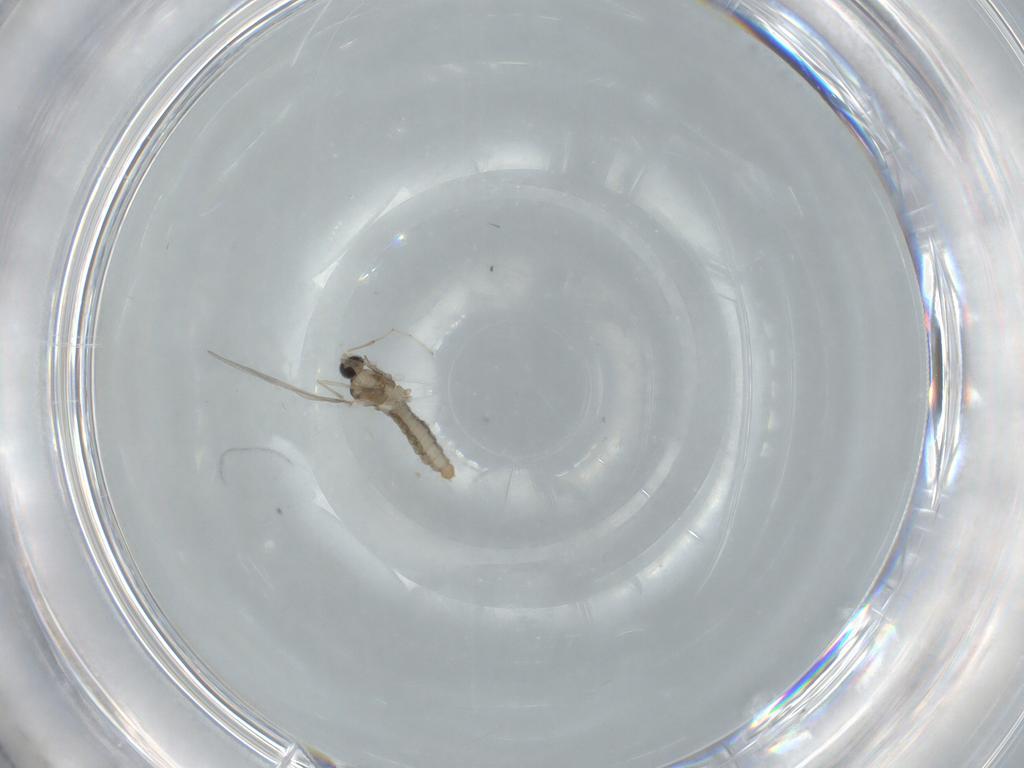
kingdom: Animalia
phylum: Arthropoda
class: Insecta
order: Diptera
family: Cecidomyiidae
